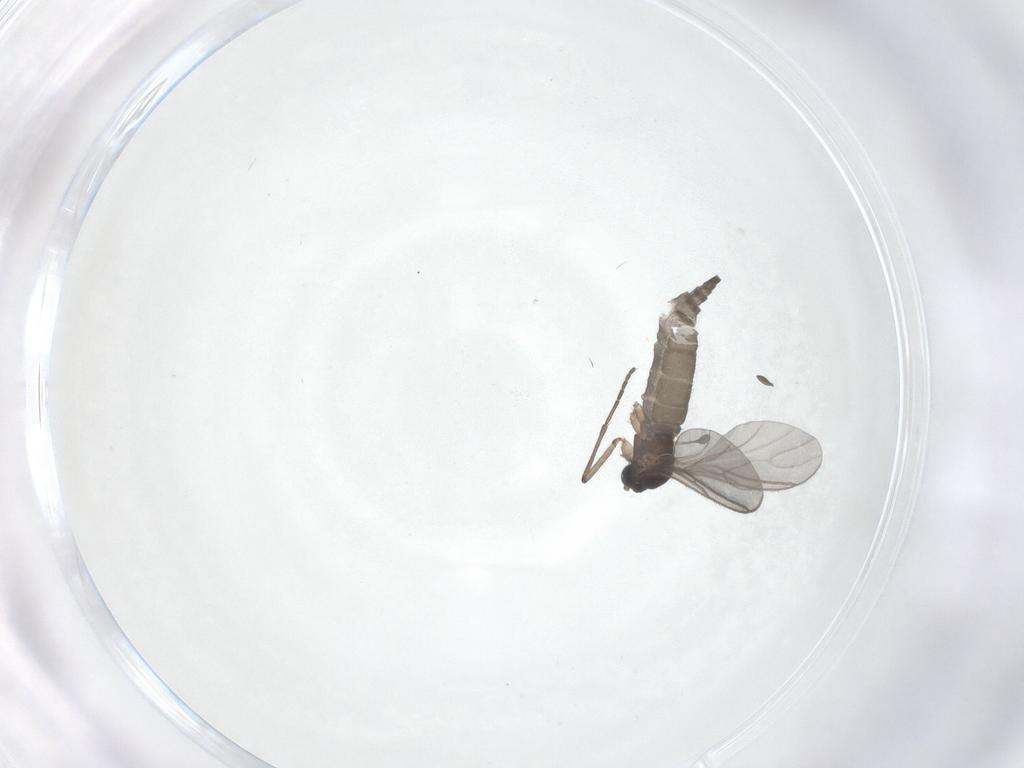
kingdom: Animalia
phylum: Arthropoda
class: Insecta
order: Diptera
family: Sciaridae
